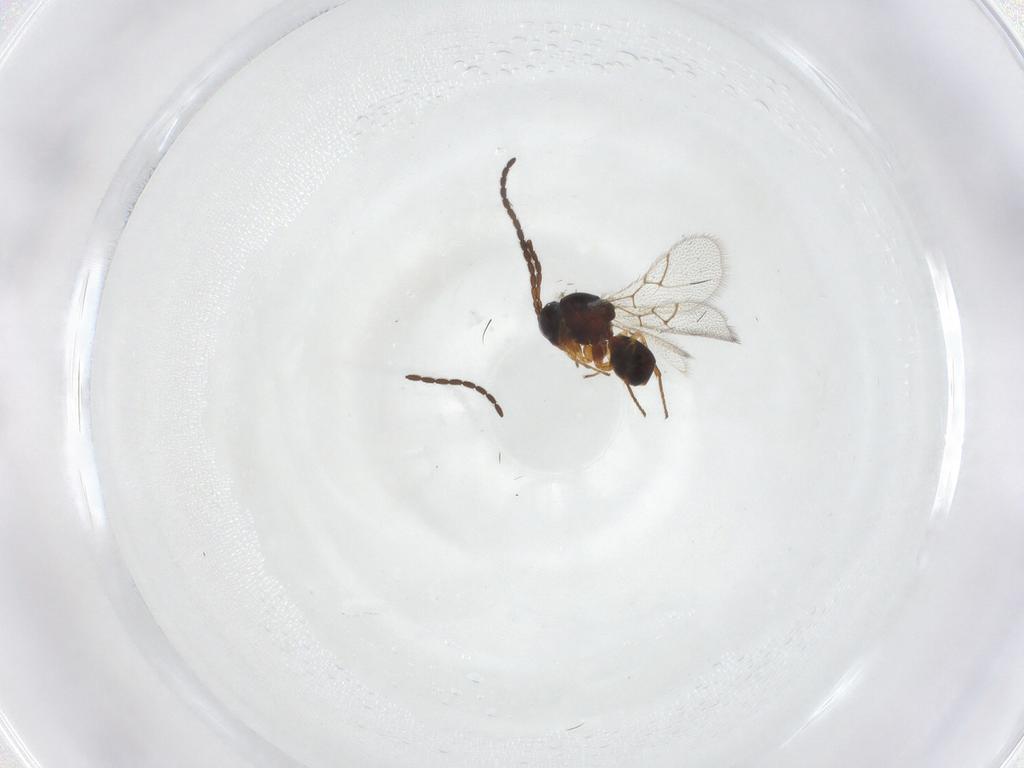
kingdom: Animalia
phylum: Arthropoda
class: Insecta
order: Hymenoptera
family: Figitidae
